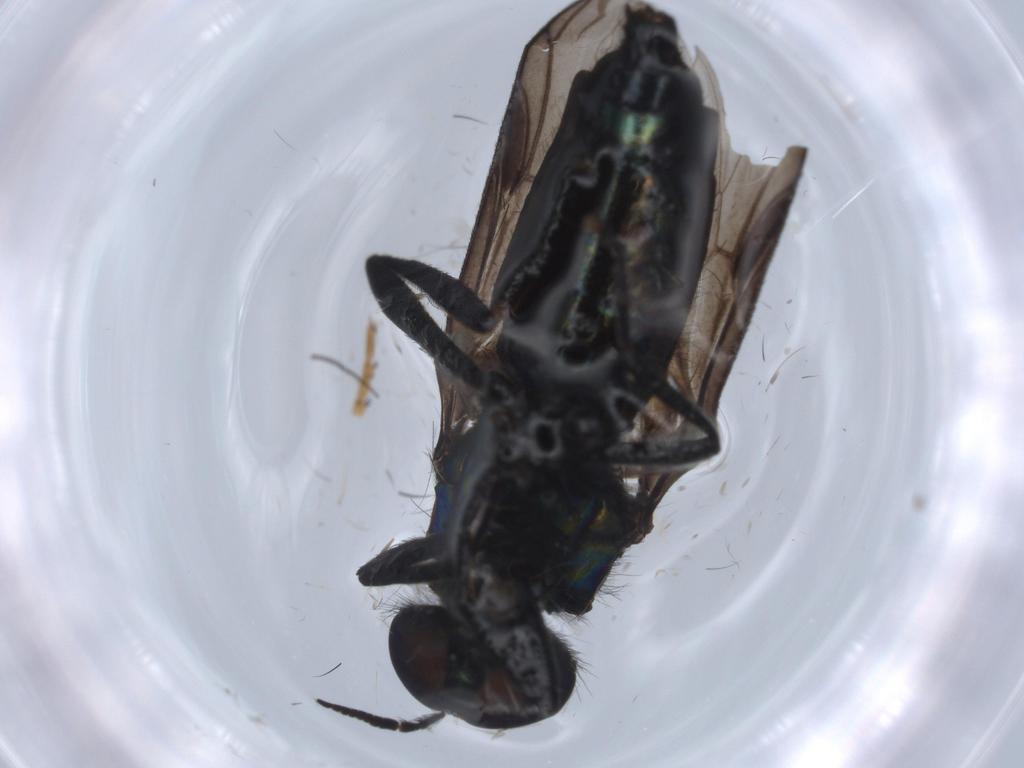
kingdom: Animalia
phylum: Arthropoda
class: Insecta
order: Diptera
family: Stratiomyidae
